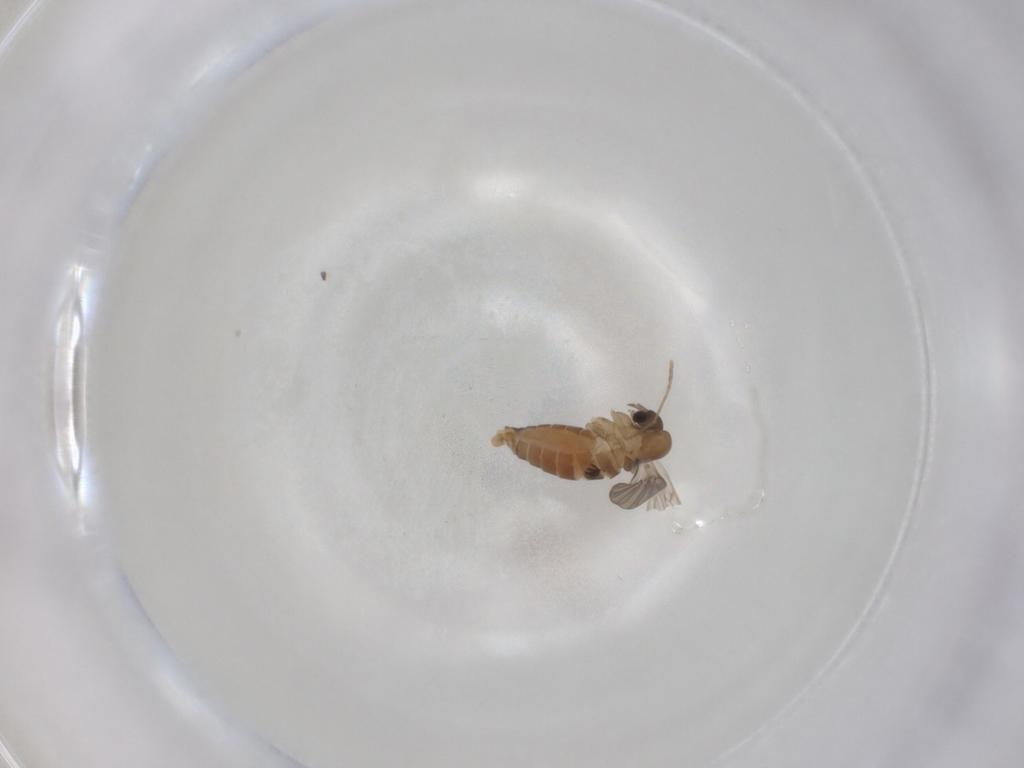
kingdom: Animalia
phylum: Arthropoda
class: Insecta
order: Diptera
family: Cecidomyiidae
